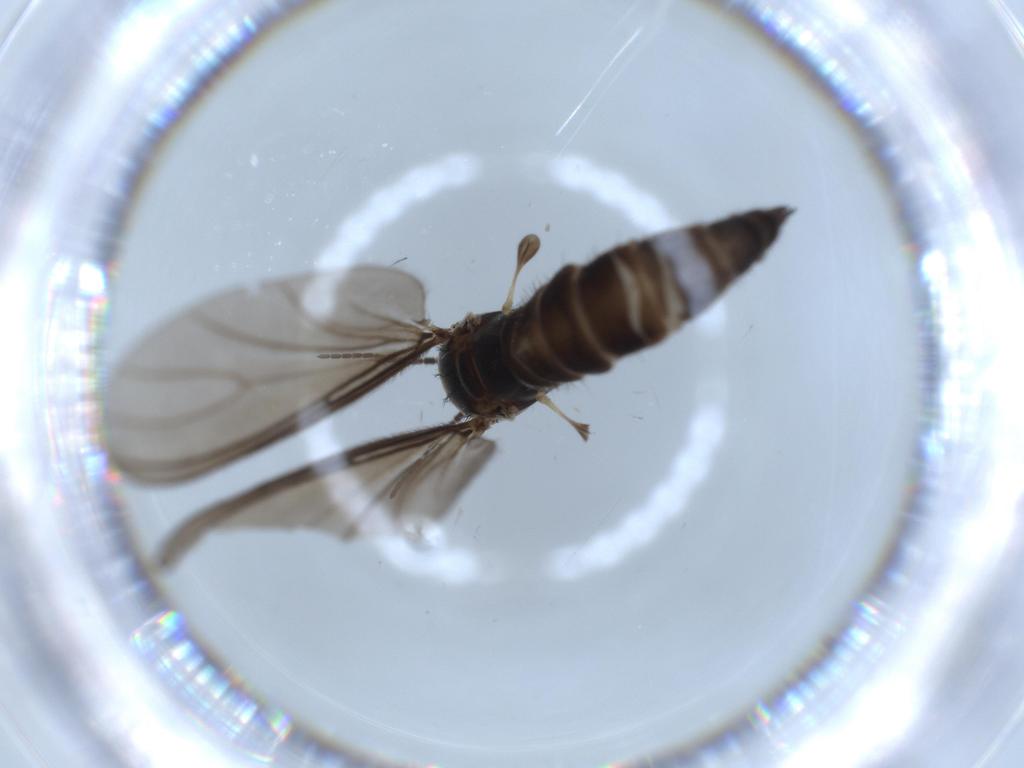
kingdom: Animalia
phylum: Arthropoda
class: Insecta
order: Diptera
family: Sciaridae
